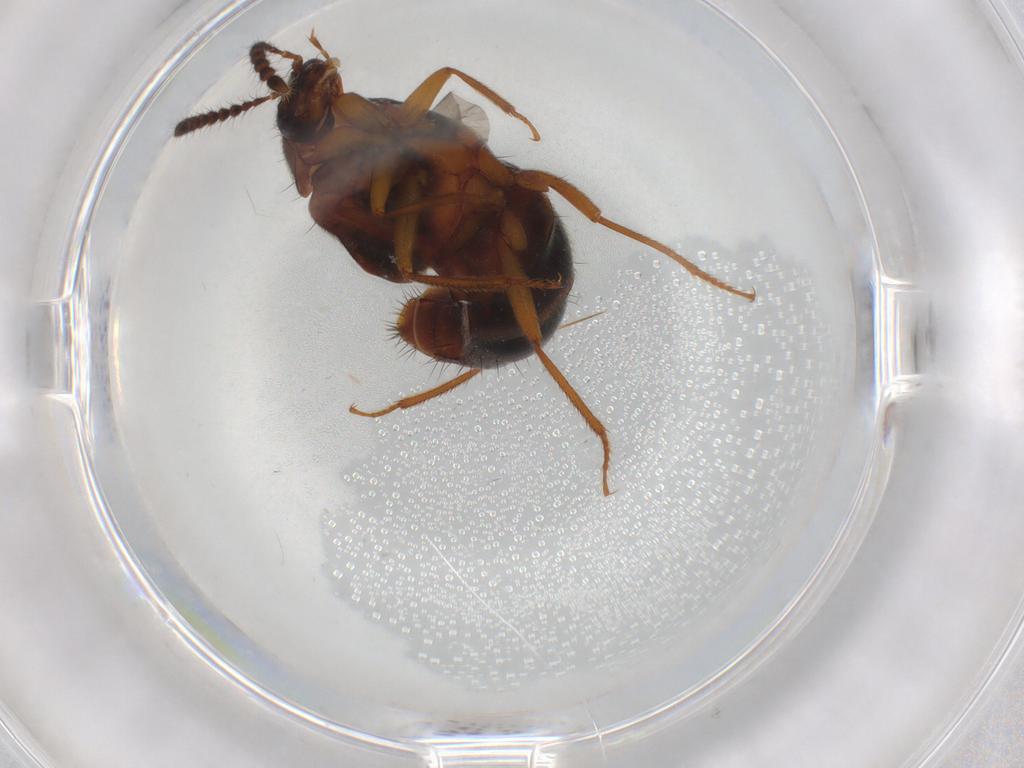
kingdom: Animalia
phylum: Arthropoda
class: Insecta
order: Coleoptera
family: Staphylinidae
